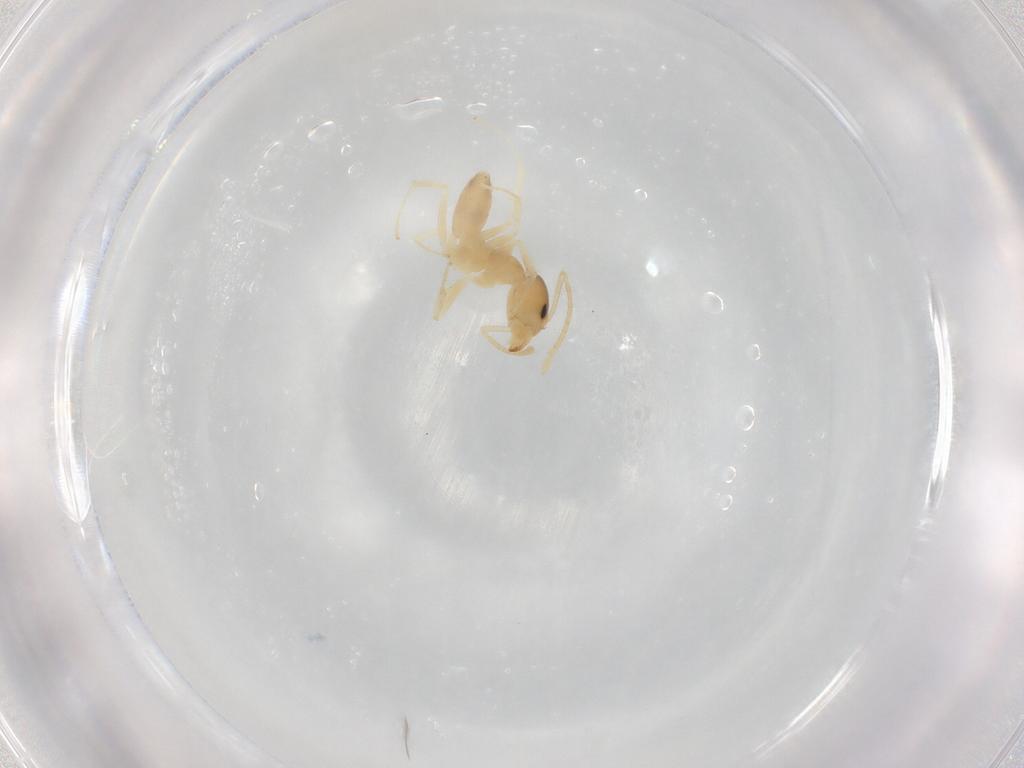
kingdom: Animalia
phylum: Arthropoda
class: Insecta
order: Hymenoptera
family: Formicidae
